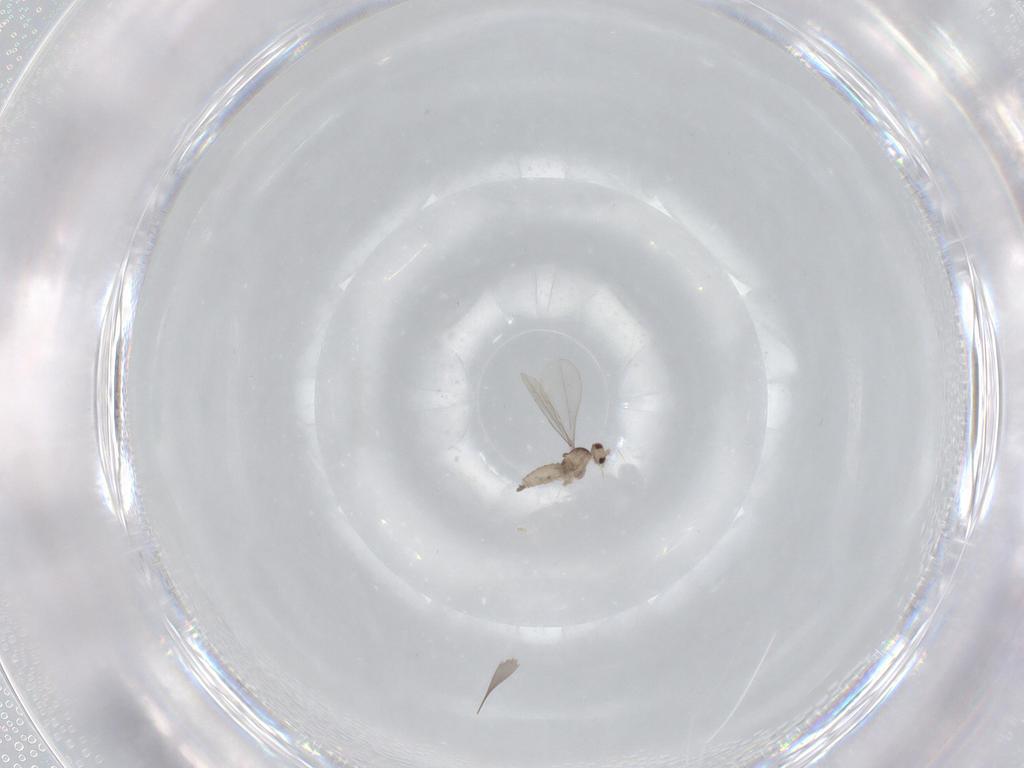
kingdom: Animalia
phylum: Arthropoda
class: Insecta
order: Diptera
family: Cecidomyiidae
